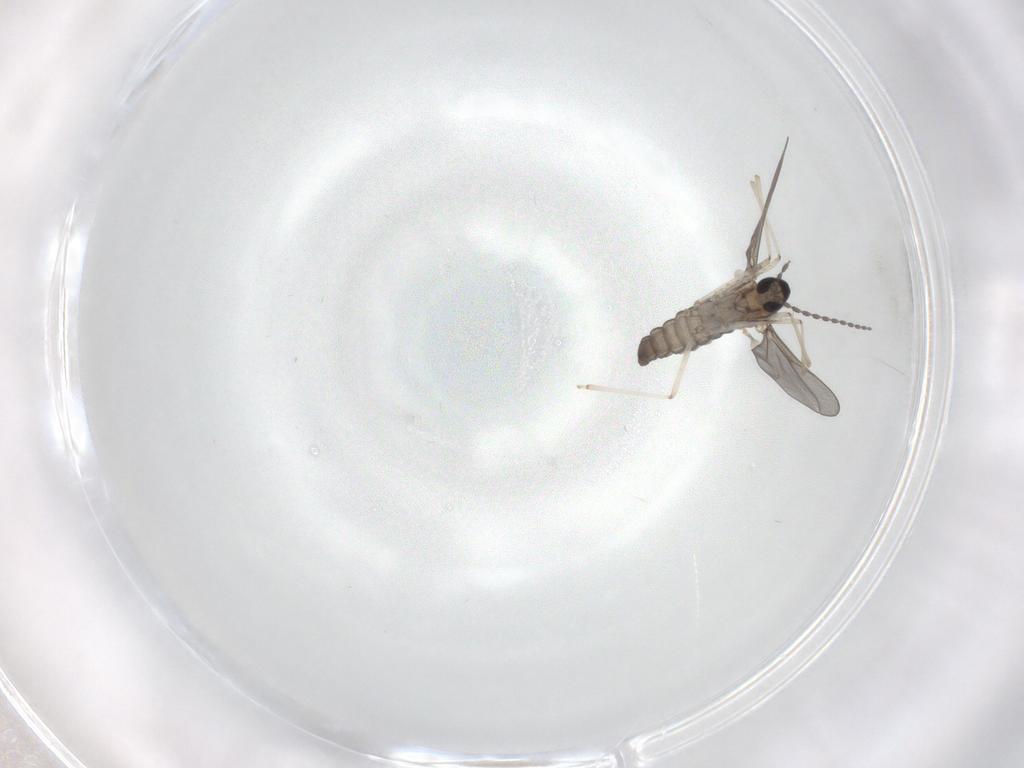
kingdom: Animalia
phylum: Arthropoda
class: Insecta
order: Diptera
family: Cecidomyiidae
